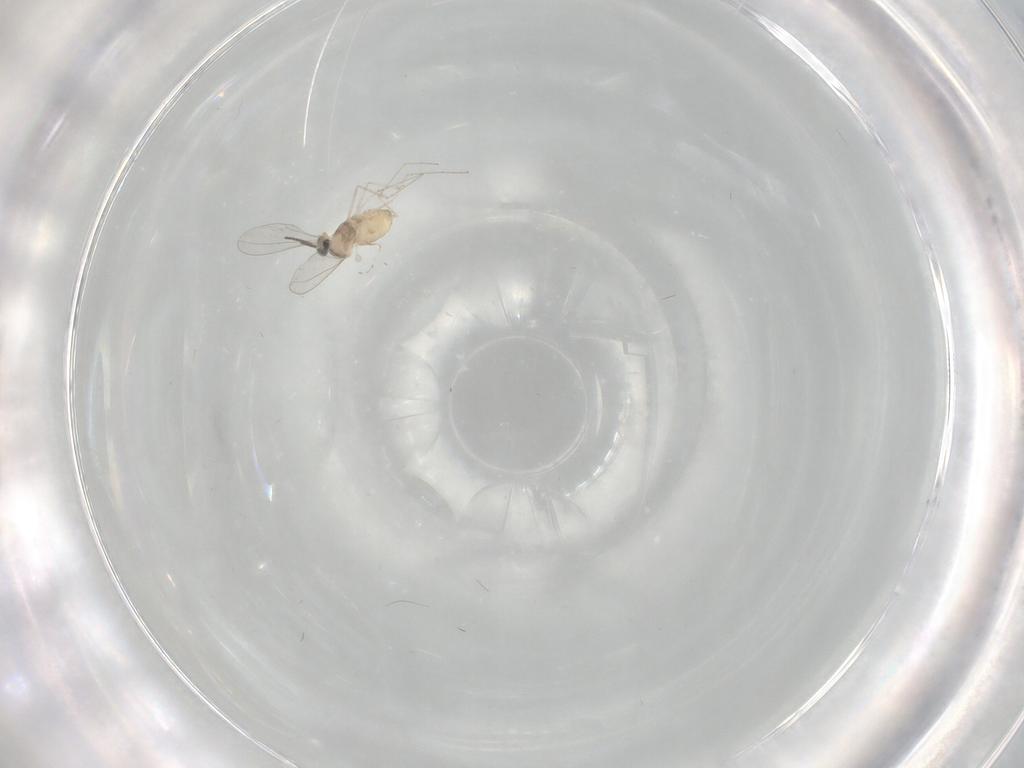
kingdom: Animalia
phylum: Arthropoda
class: Insecta
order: Diptera
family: Cecidomyiidae
